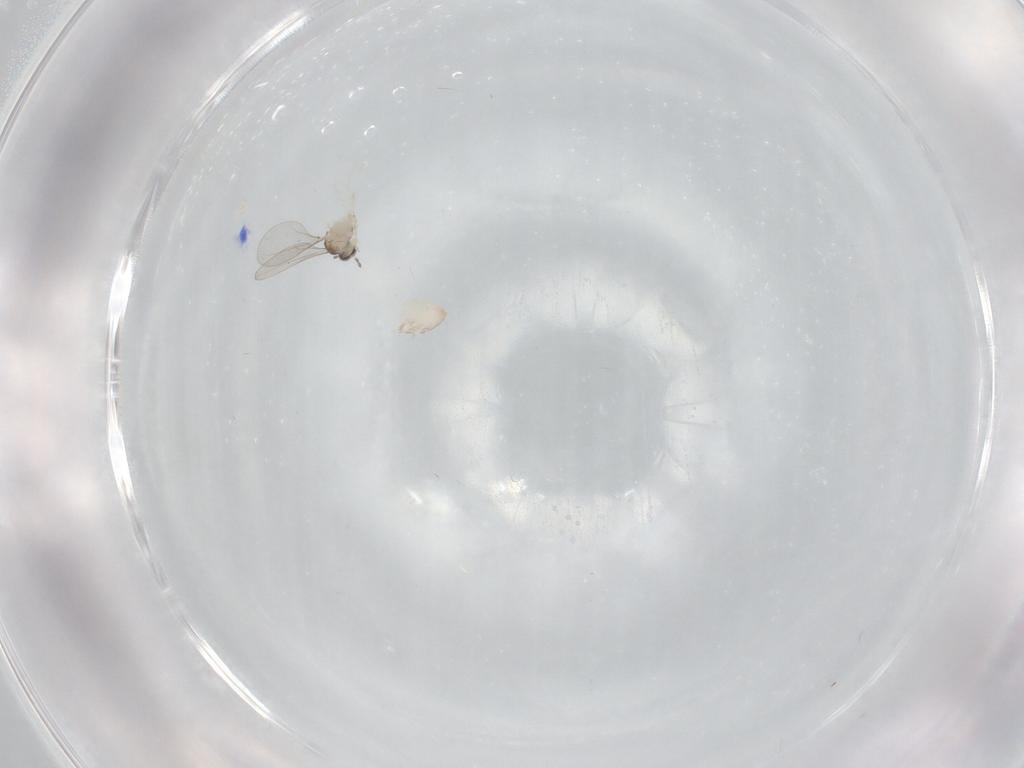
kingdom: Animalia
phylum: Arthropoda
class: Insecta
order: Diptera
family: Cecidomyiidae
